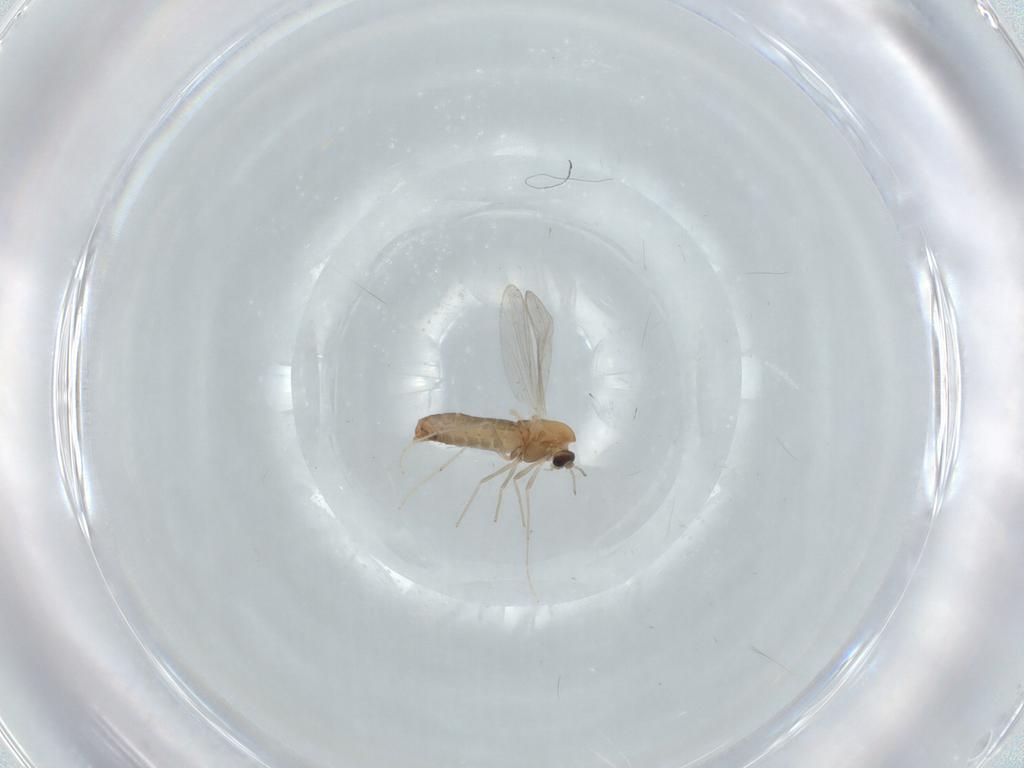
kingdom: Animalia
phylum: Arthropoda
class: Insecta
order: Diptera
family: Chironomidae
